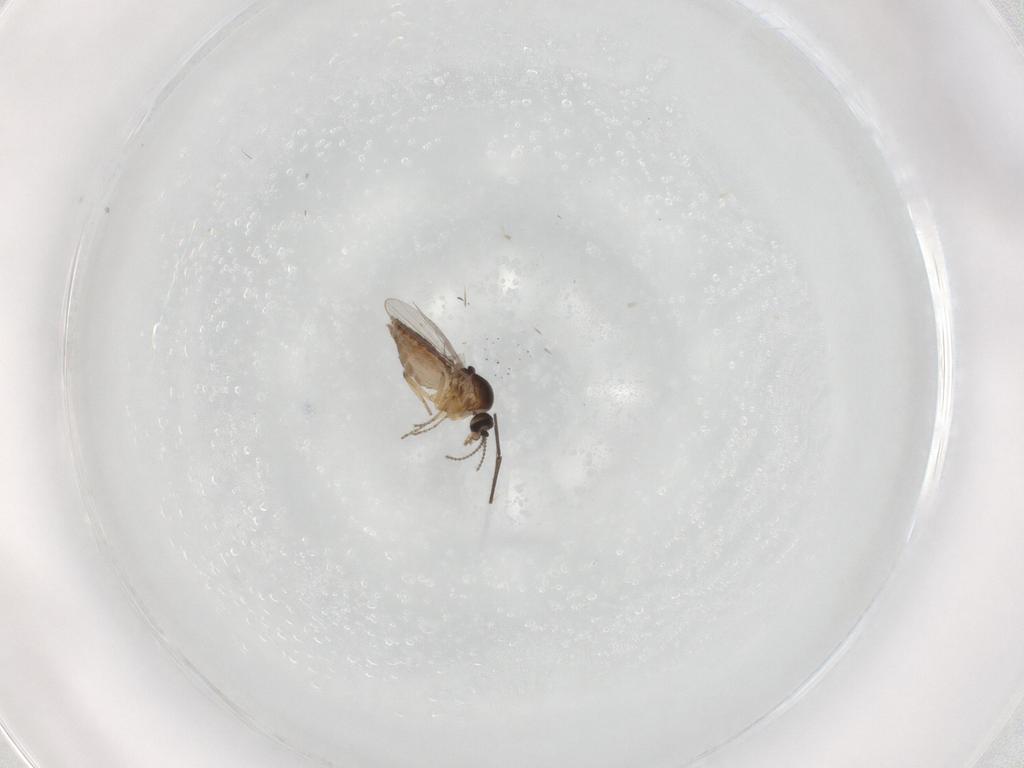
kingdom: Animalia
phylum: Arthropoda
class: Insecta
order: Diptera
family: Ceratopogonidae
